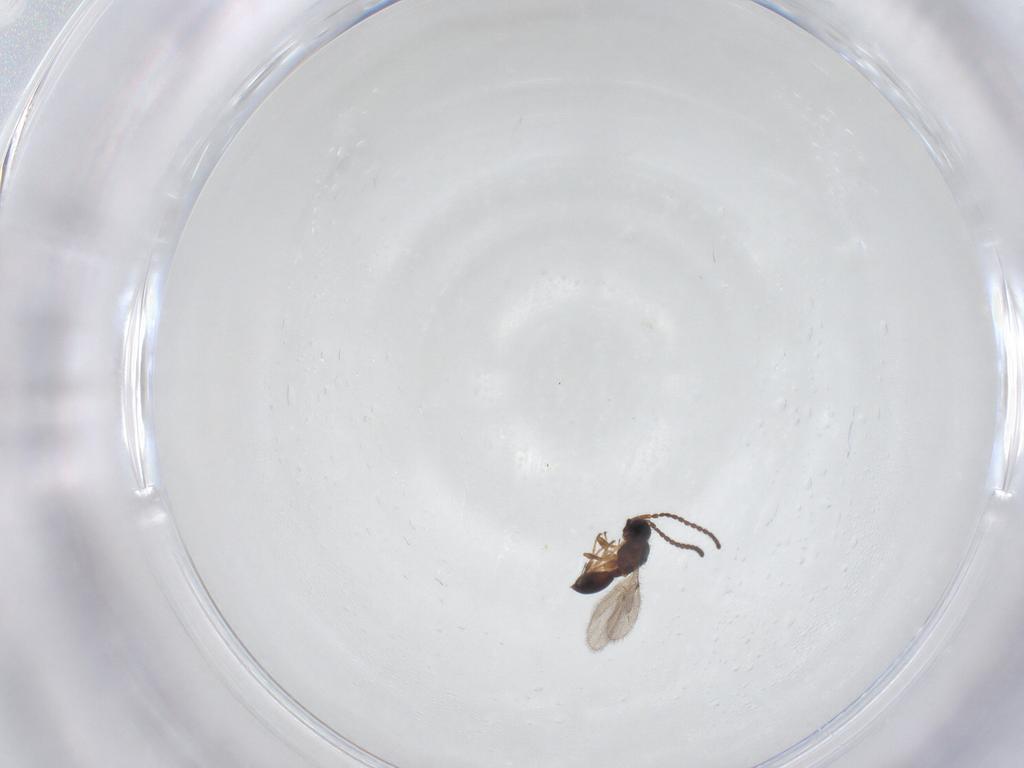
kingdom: Animalia
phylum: Arthropoda
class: Insecta
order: Hymenoptera
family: Diapriidae
